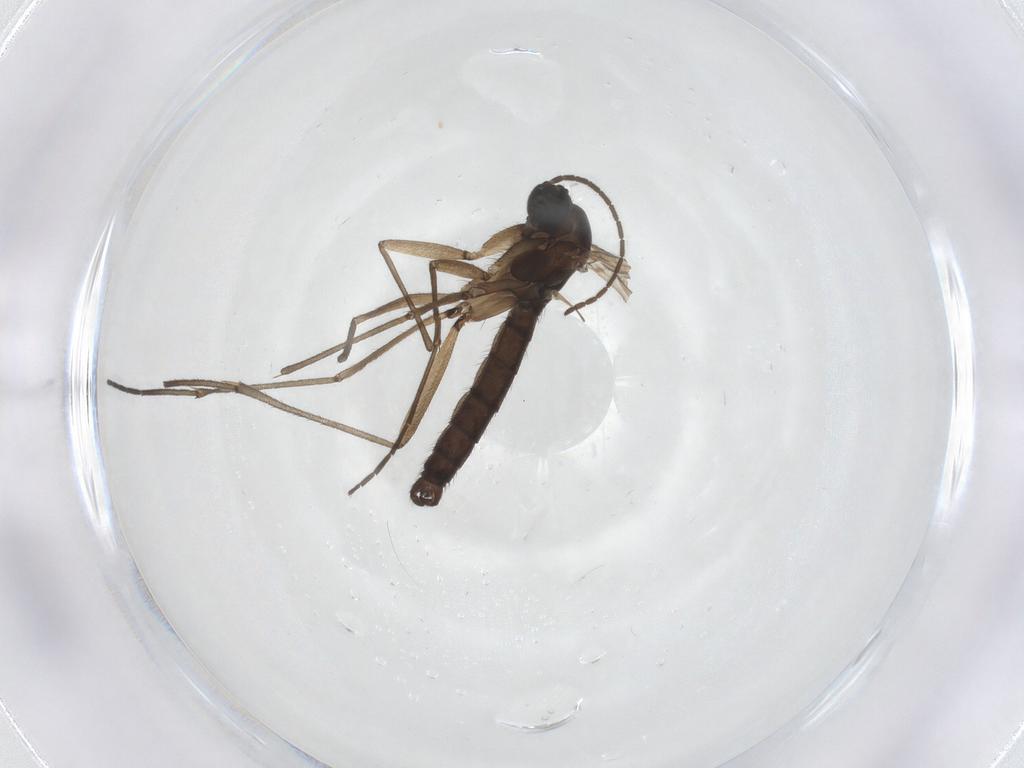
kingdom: Animalia
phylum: Arthropoda
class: Insecta
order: Diptera
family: Sciaridae
